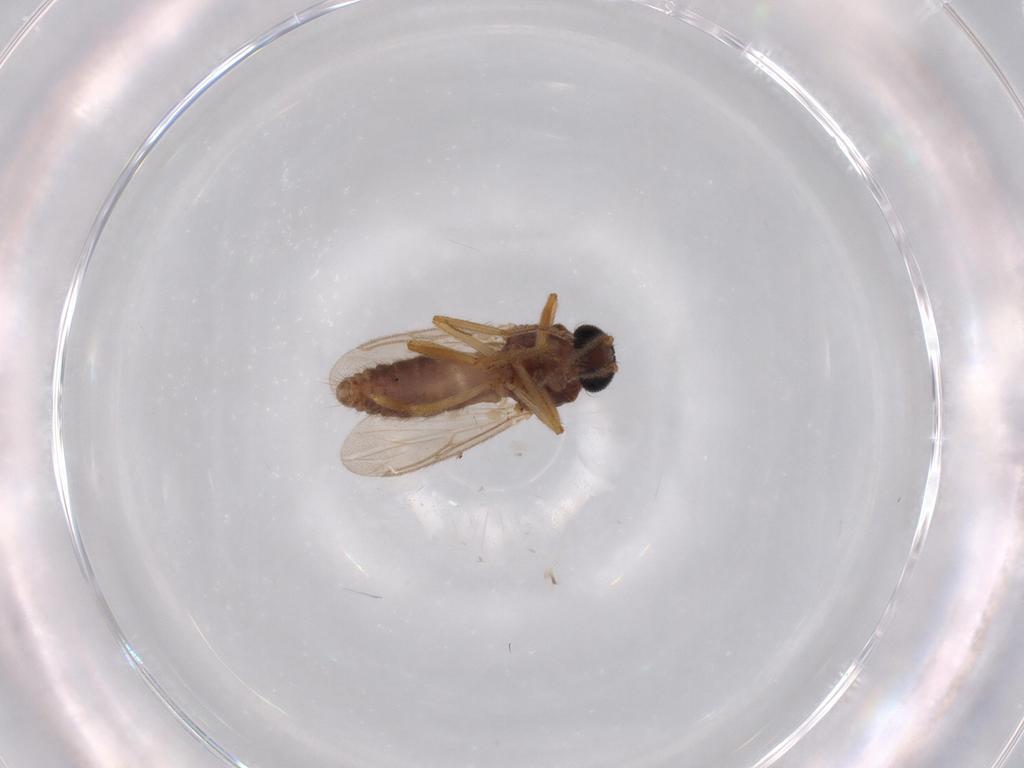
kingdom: Animalia
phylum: Arthropoda
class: Insecta
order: Diptera
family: Ceratopogonidae
